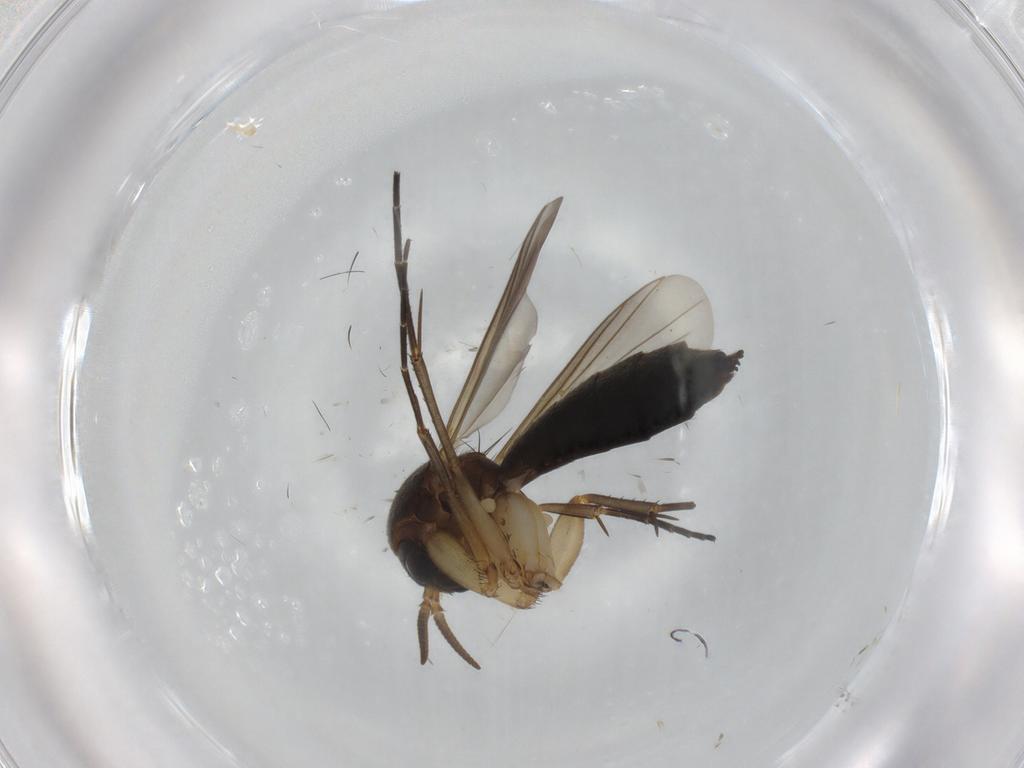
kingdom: Animalia
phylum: Arthropoda
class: Insecta
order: Diptera
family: Mycetophilidae
